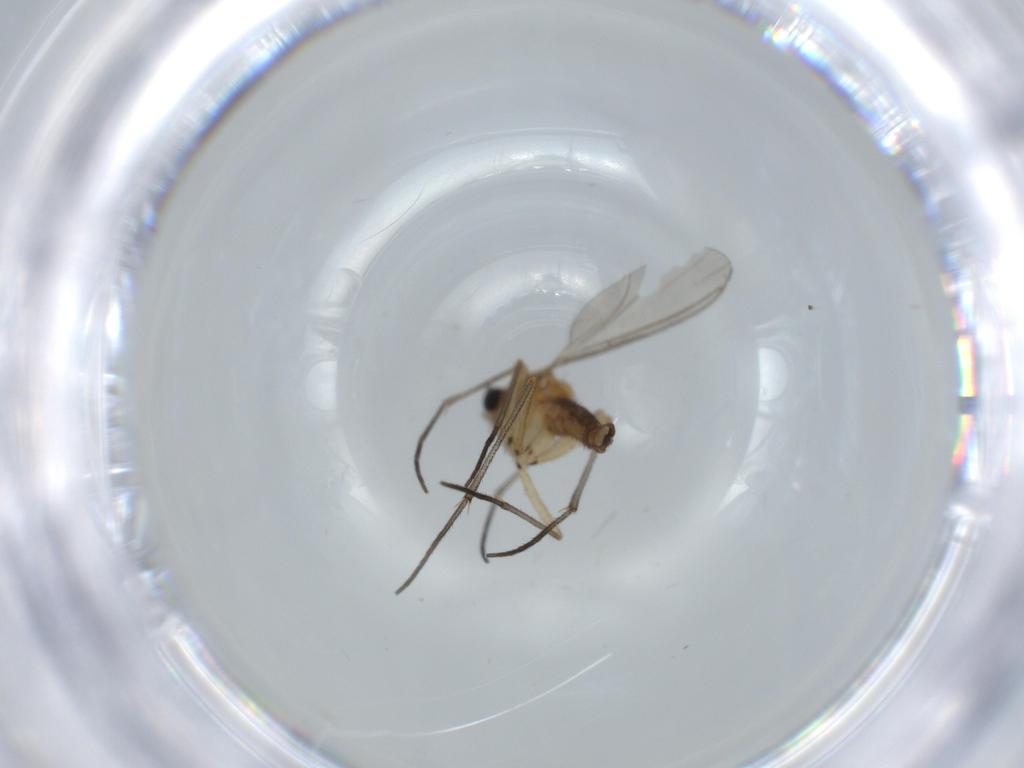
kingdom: Animalia
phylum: Arthropoda
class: Insecta
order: Diptera
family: Sciaridae
